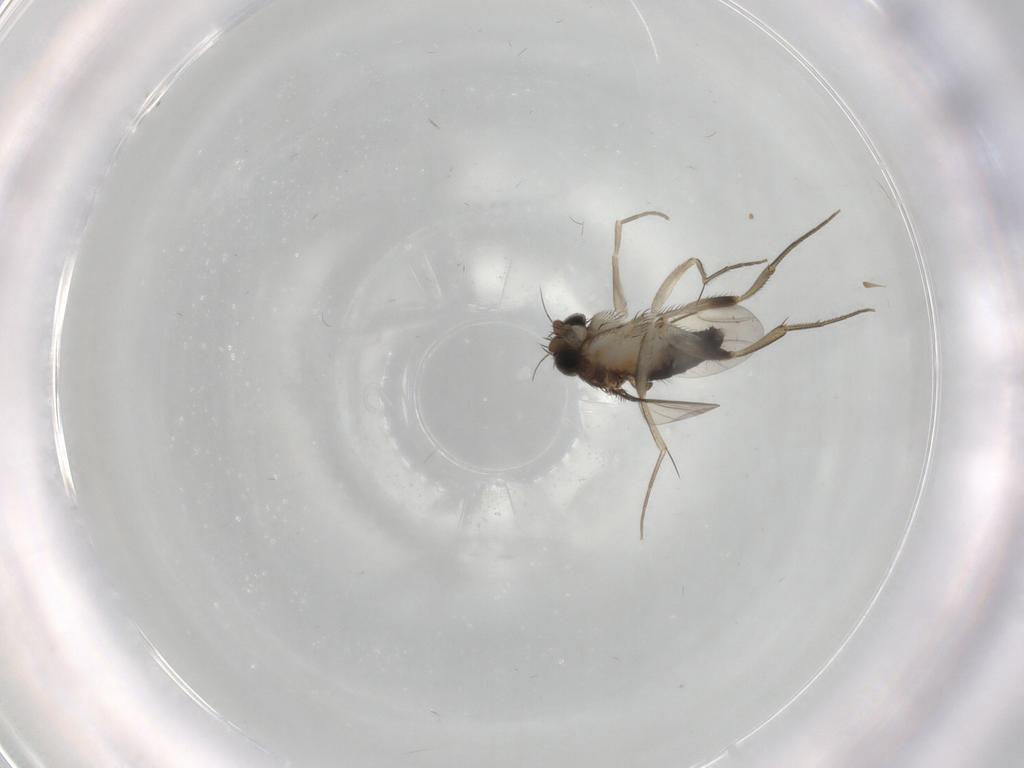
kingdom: Animalia
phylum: Arthropoda
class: Insecta
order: Diptera
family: Phoridae
